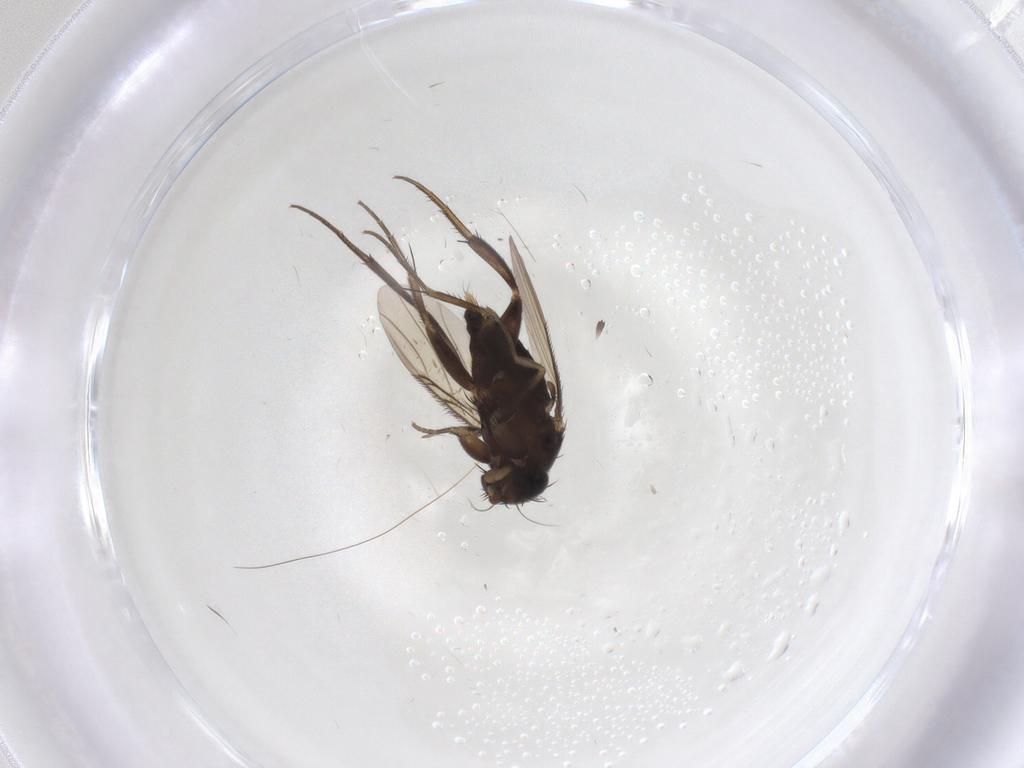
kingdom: Animalia
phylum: Arthropoda
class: Insecta
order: Diptera
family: Phoridae
